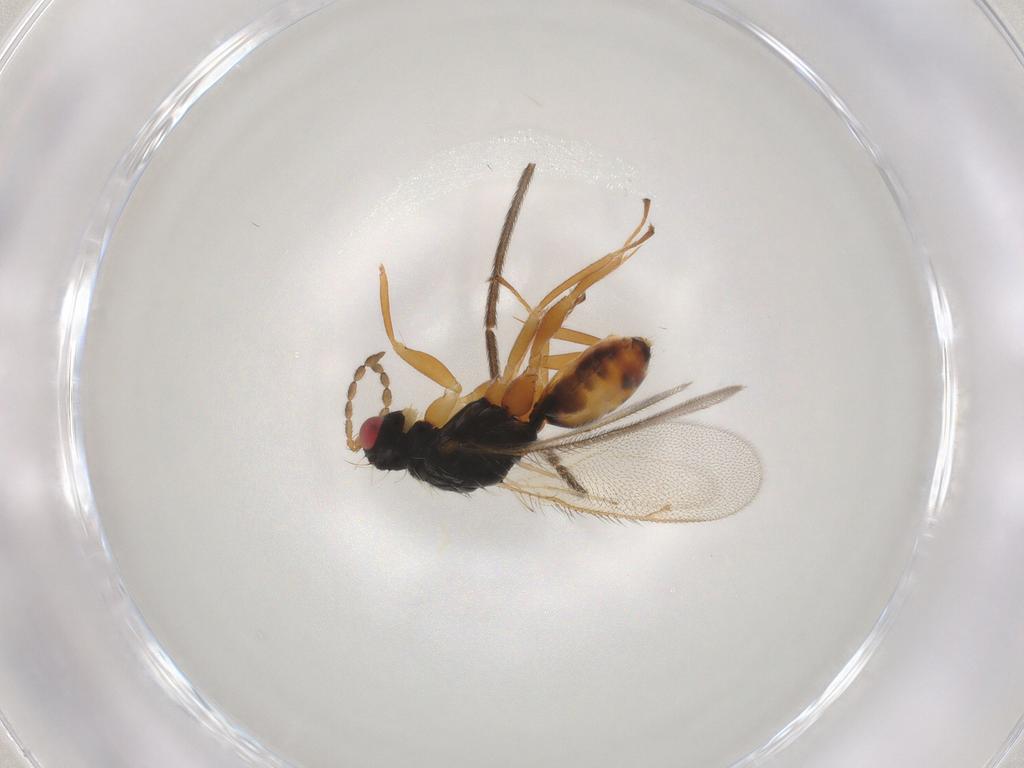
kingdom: Animalia
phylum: Arthropoda
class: Insecta
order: Hymenoptera
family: Eulophidae
